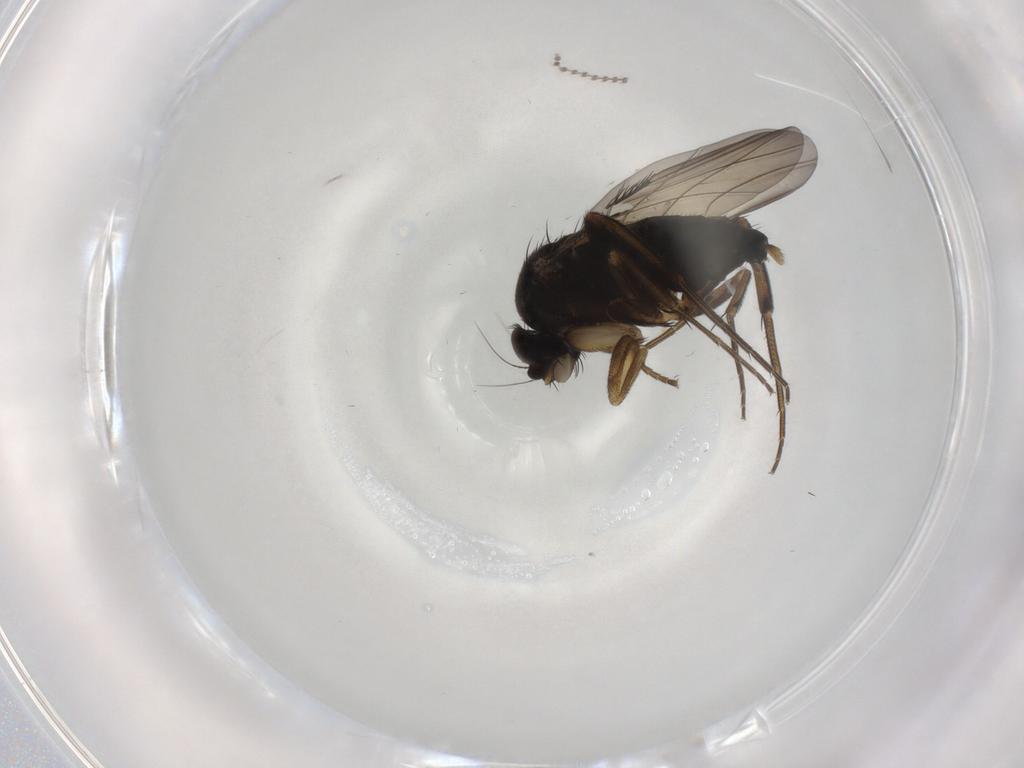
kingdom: Animalia
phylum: Arthropoda
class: Insecta
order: Diptera
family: Phoridae
